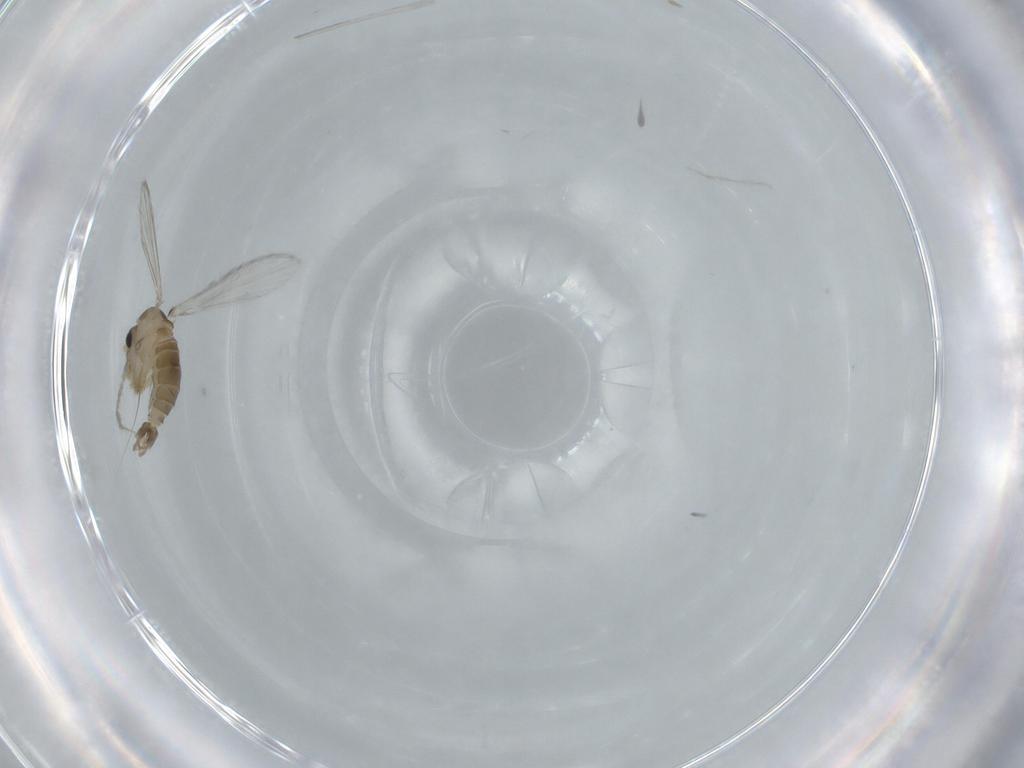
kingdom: Animalia
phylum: Arthropoda
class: Insecta
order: Diptera
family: Psychodidae
